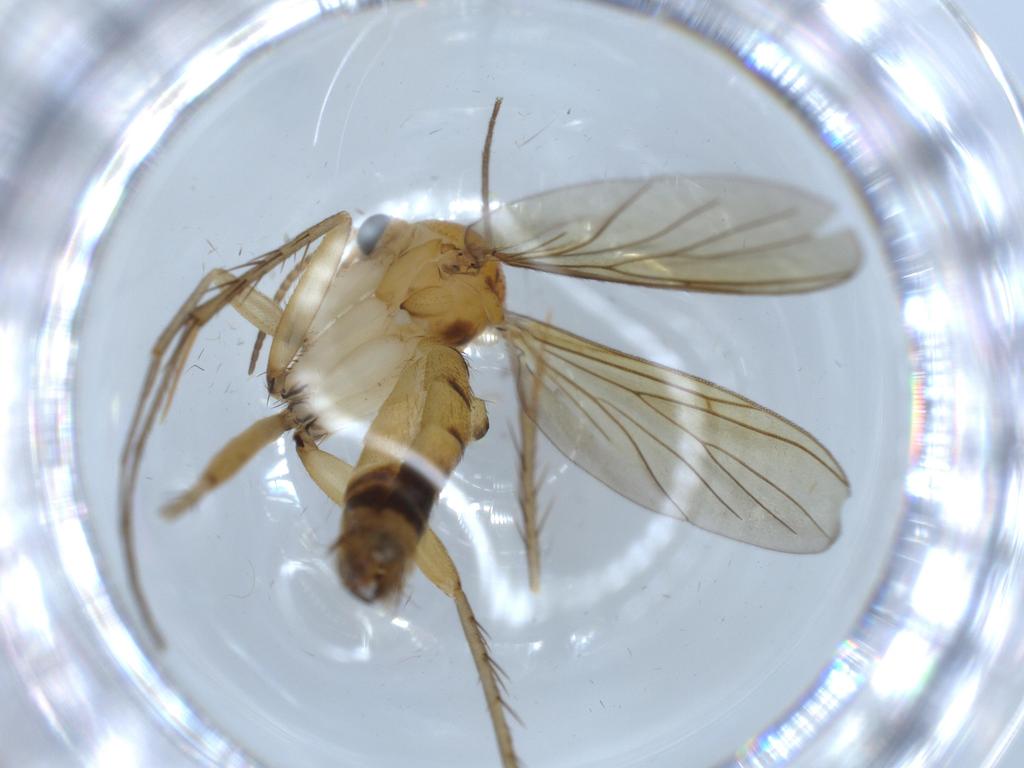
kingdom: Animalia
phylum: Arthropoda
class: Insecta
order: Diptera
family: Mycetophilidae
